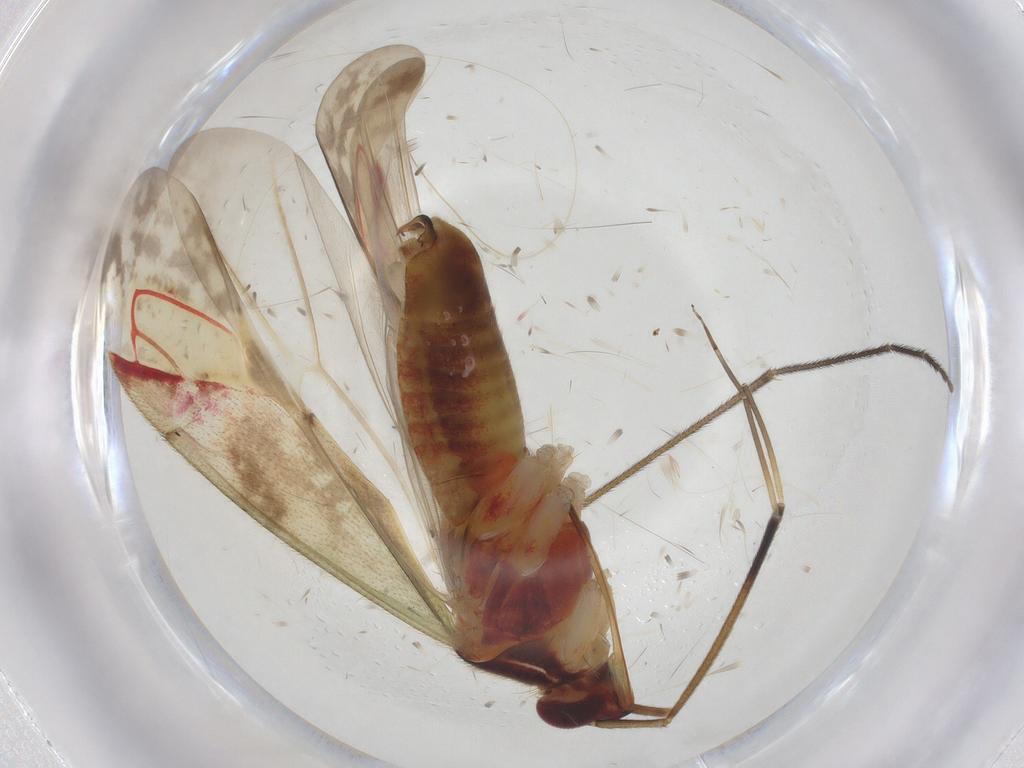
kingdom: Animalia
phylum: Arthropoda
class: Insecta
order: Hemiptera
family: Miridae
